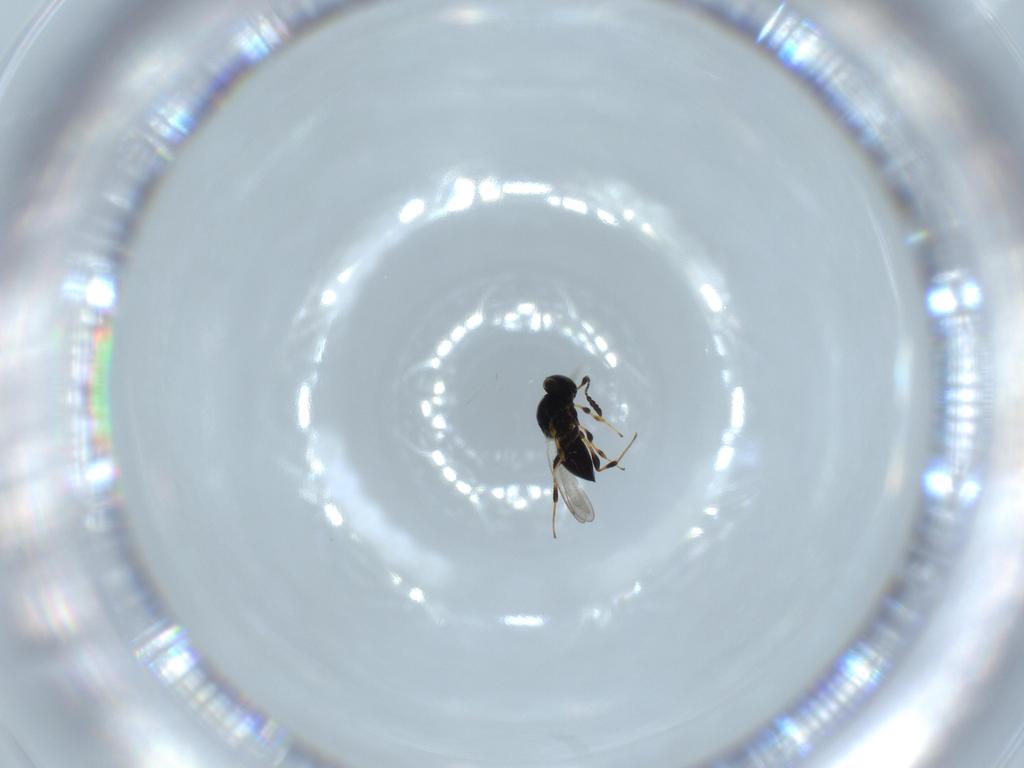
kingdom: Animalia
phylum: Arthropoda
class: Insecta
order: Hymenoptera
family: Platygastridae
